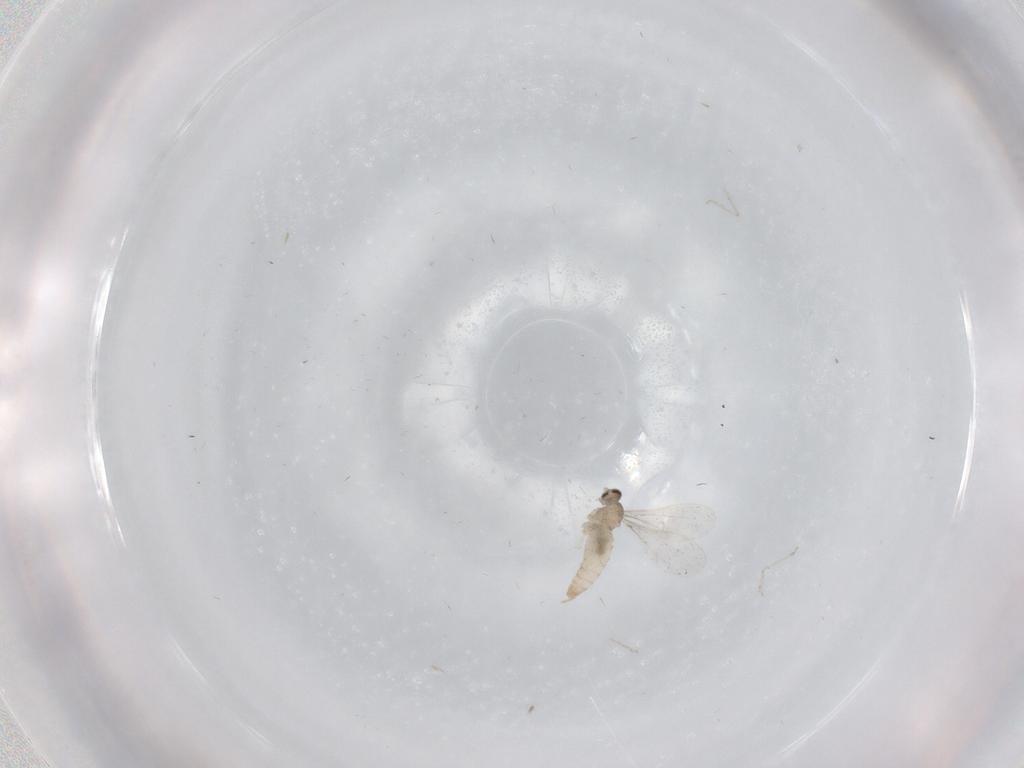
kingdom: Animalia
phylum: Arthropoda
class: Insecta
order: Diptera
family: Cecidomyiidae
